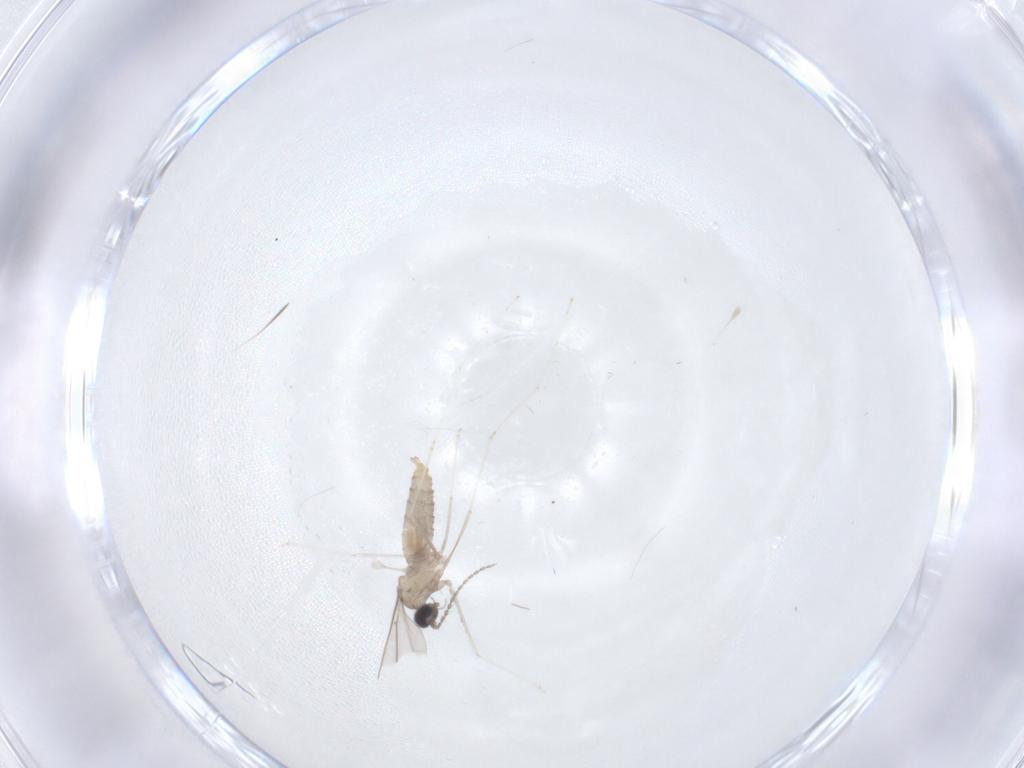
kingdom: Animalia
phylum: Arthropoda
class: Insecta
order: Diptera
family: Cecidomyiidae
